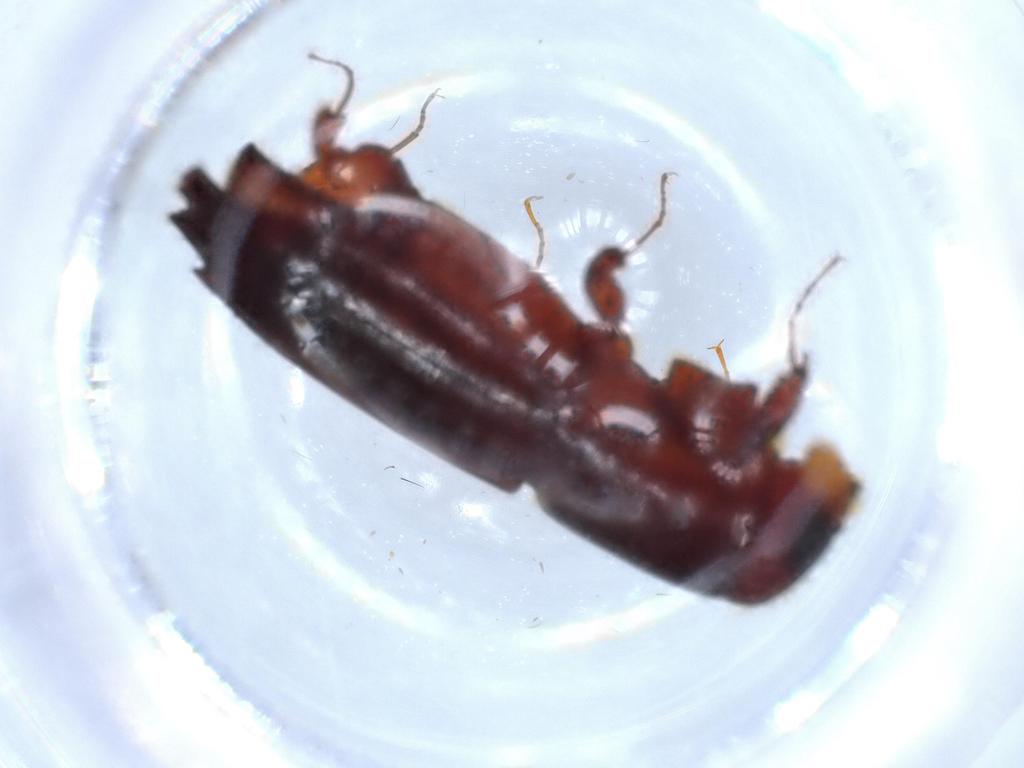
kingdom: Animalia
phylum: Arthropoda
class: Insecta
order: Coleoptera
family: Curculionidae
